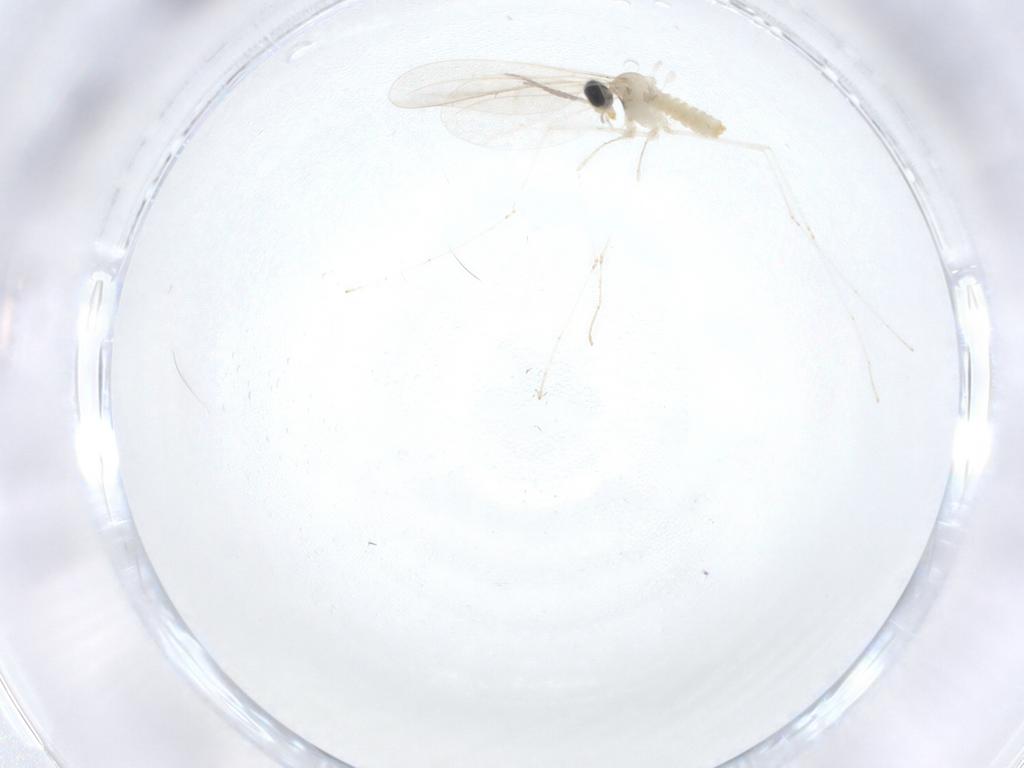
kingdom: Animalia
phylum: Arthropoda
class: Insecta
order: Diptera
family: Cecidomyiidae
